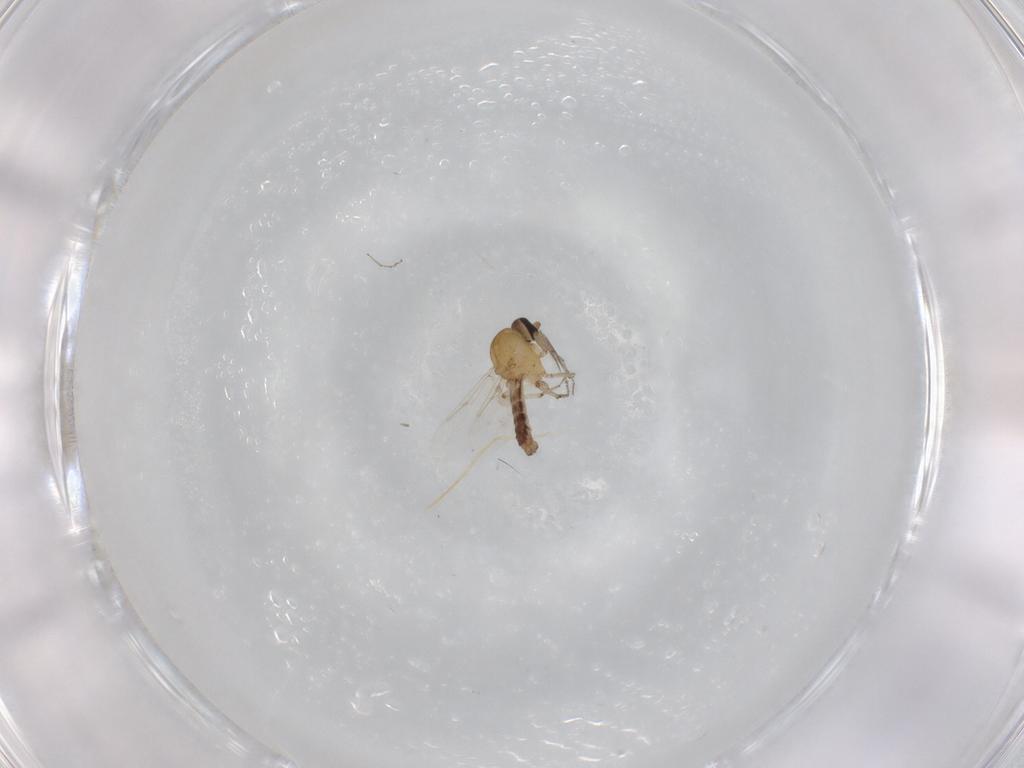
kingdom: Animalia
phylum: Arthropoda
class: Insecta
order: Diptera
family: Ceratopogonidae
